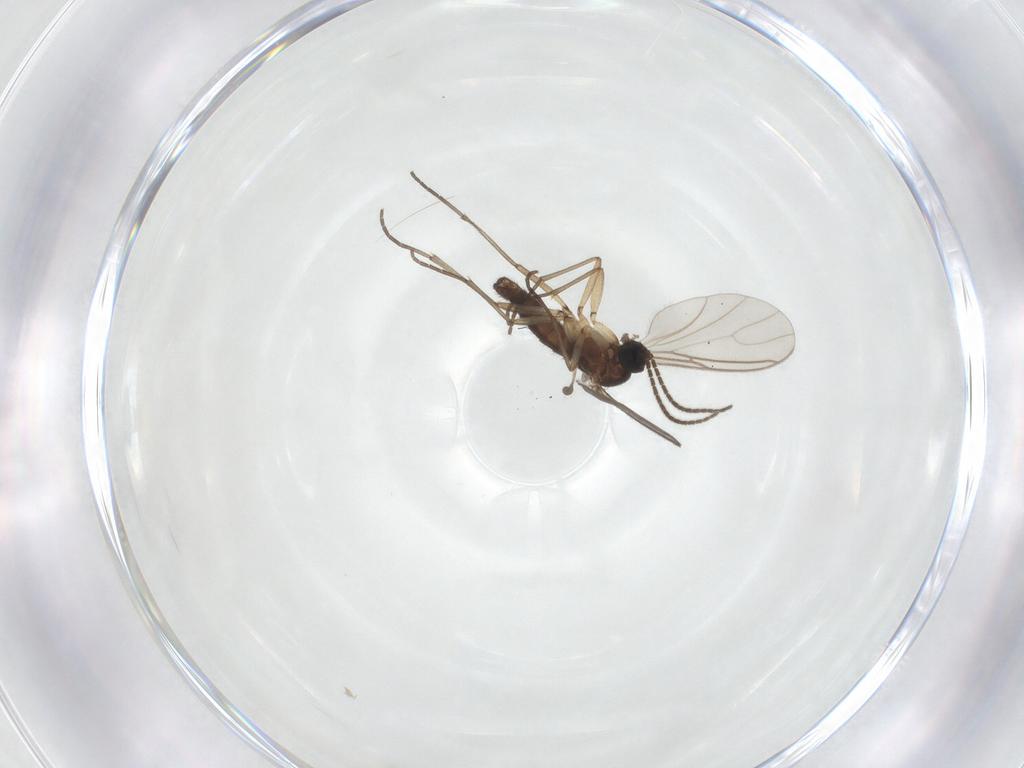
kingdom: Animalia
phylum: Arthropoda
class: Insecta
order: Diptera
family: Sciaridae
